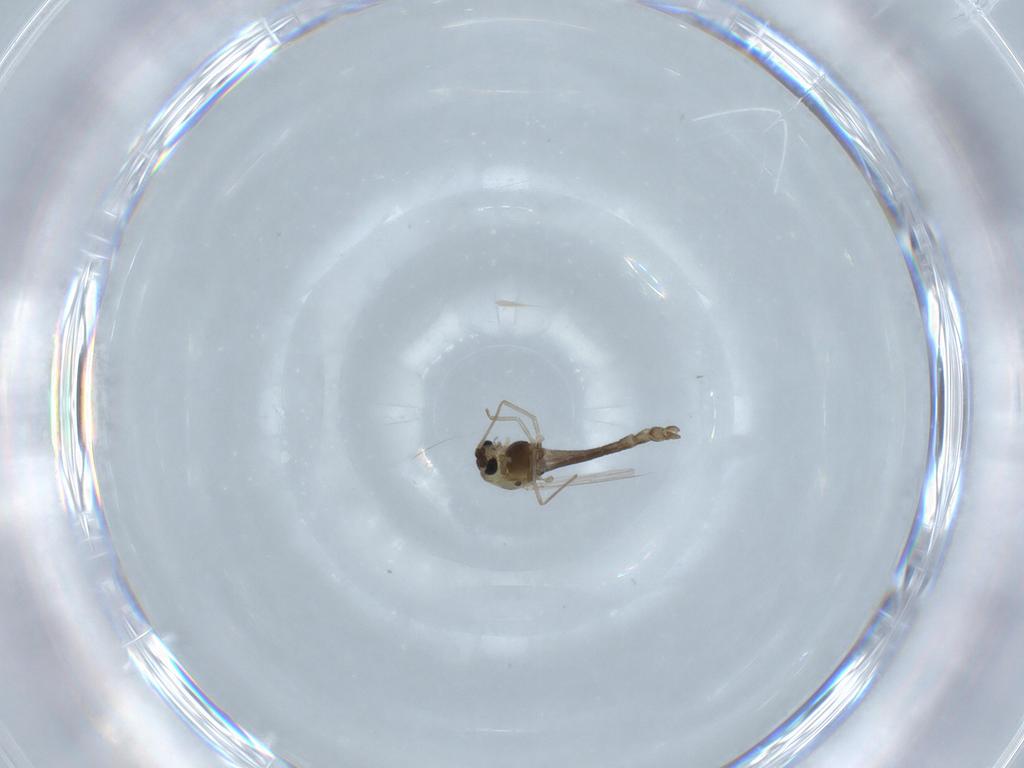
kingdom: Animalia
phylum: Arthropoda
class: Insecta
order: Diptera
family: Chironomidae
